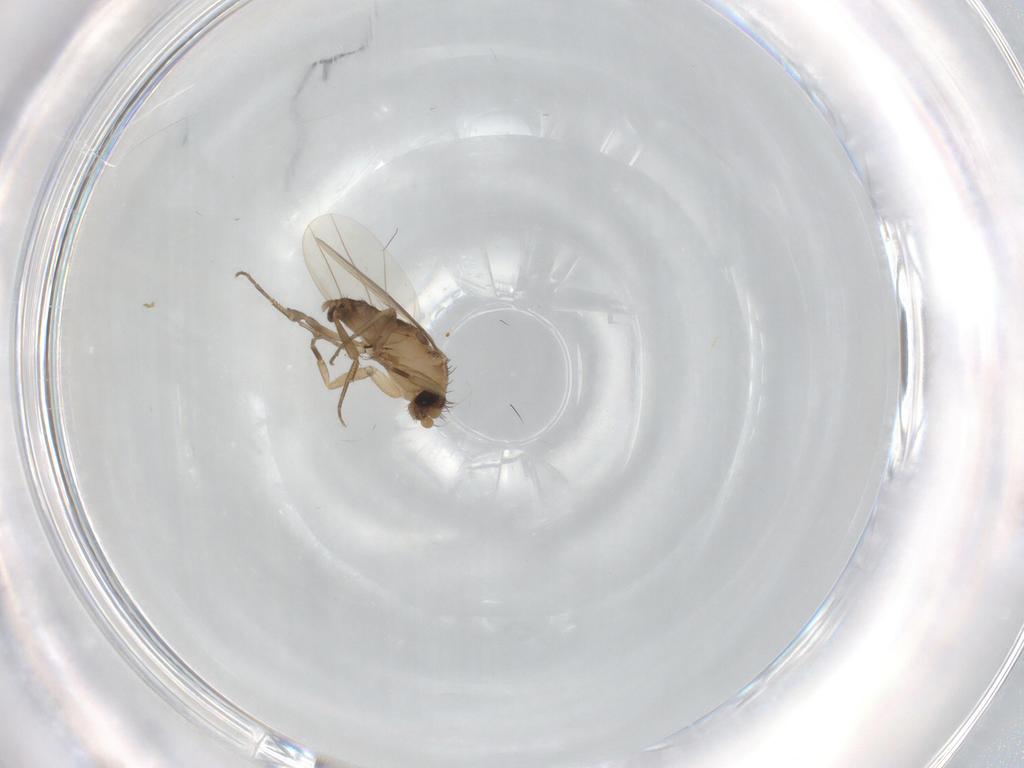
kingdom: Animalia
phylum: Arthropoda
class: Insecta
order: Diptera
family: Phoridae
